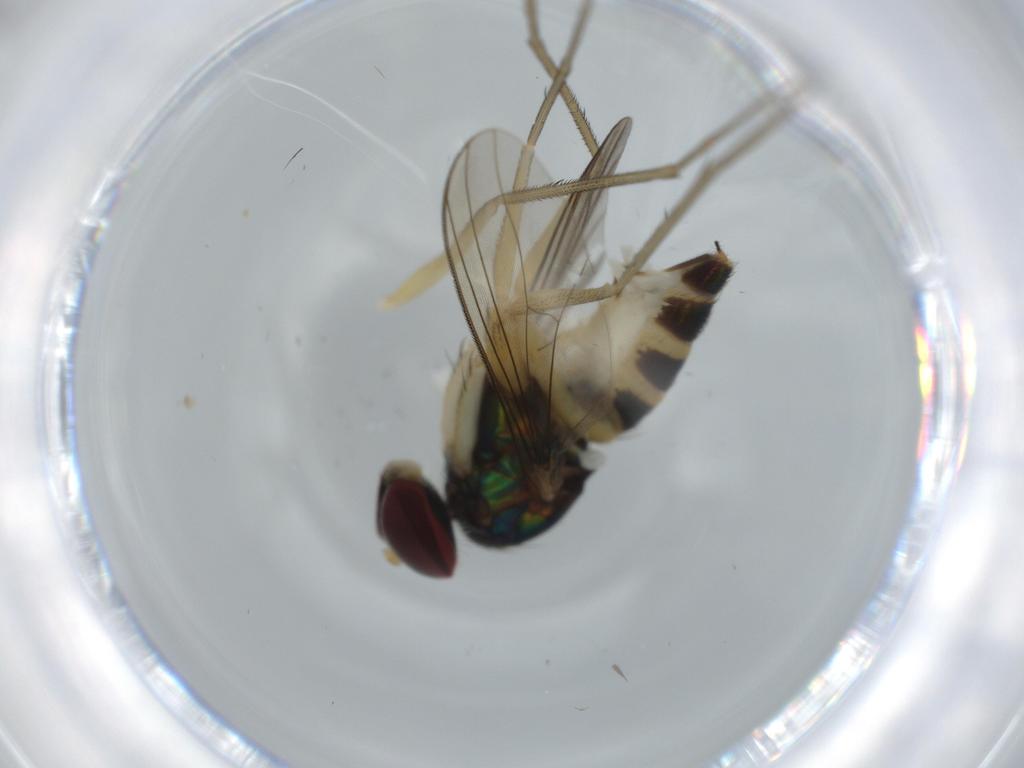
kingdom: Animalia
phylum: Arthropoda
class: Insecta
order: Diptera
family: Dolichopodidae
